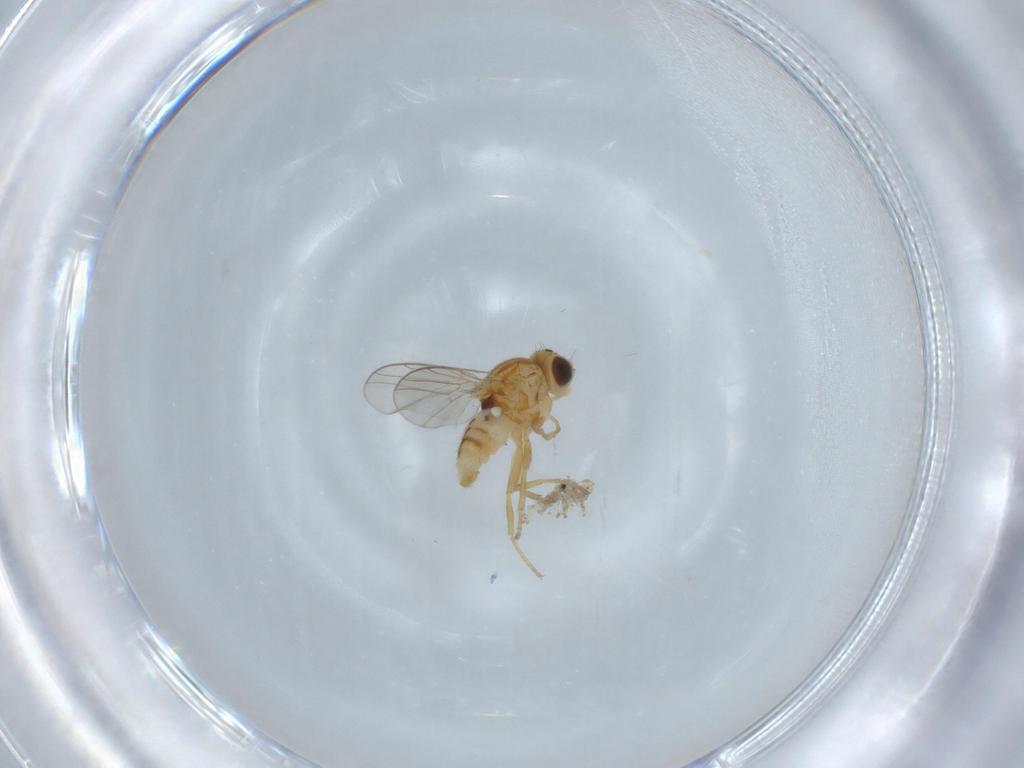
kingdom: Animalia
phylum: Arthropoda
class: Insecta
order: Diptera
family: Chloropidae
